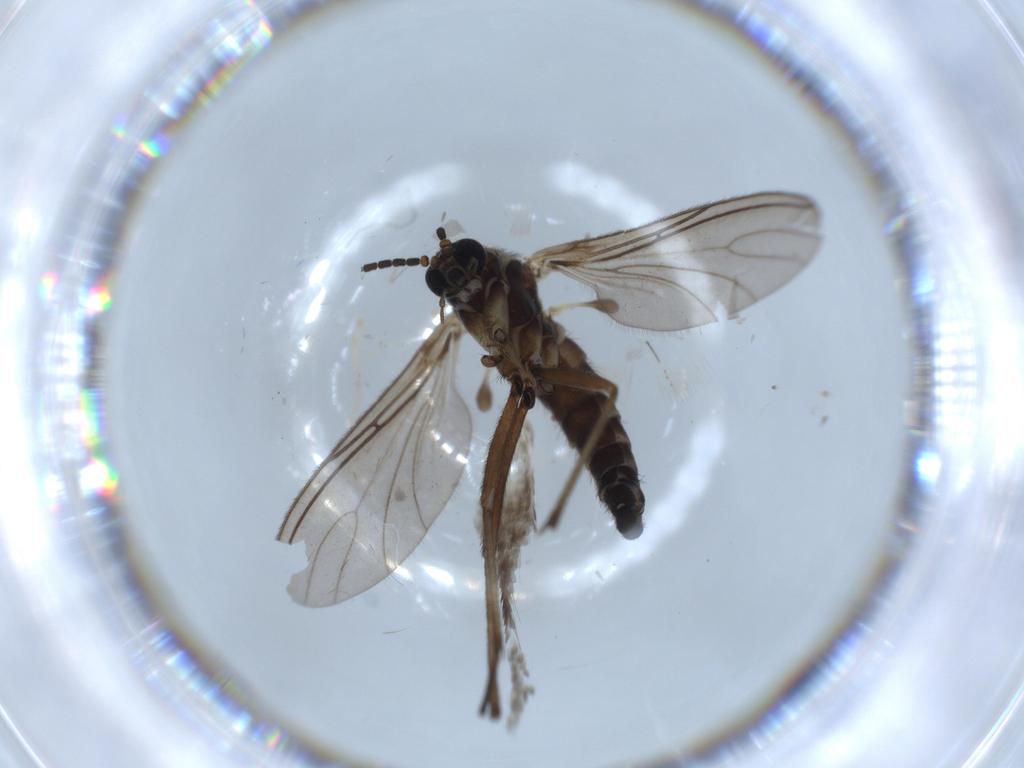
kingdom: Animalia
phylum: Arthropoda
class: Insecta
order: Diptera
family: Sciaridae
